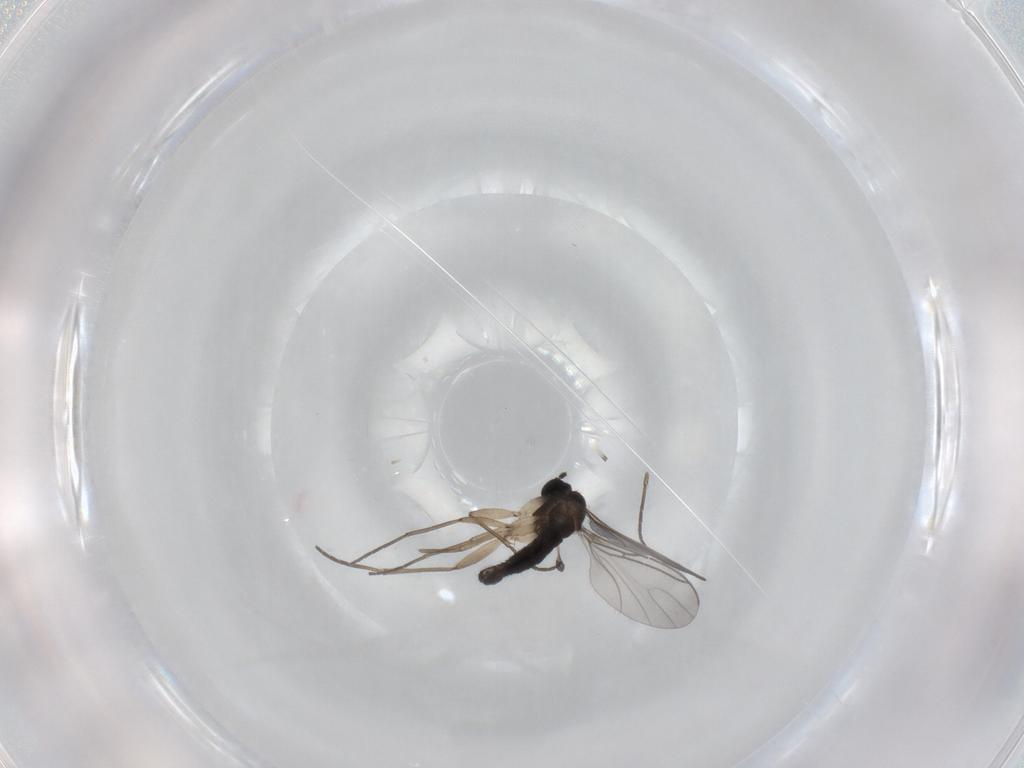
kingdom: Animalia
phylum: Arthropoda
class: Insecta
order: Diptera
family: Sciaridae
